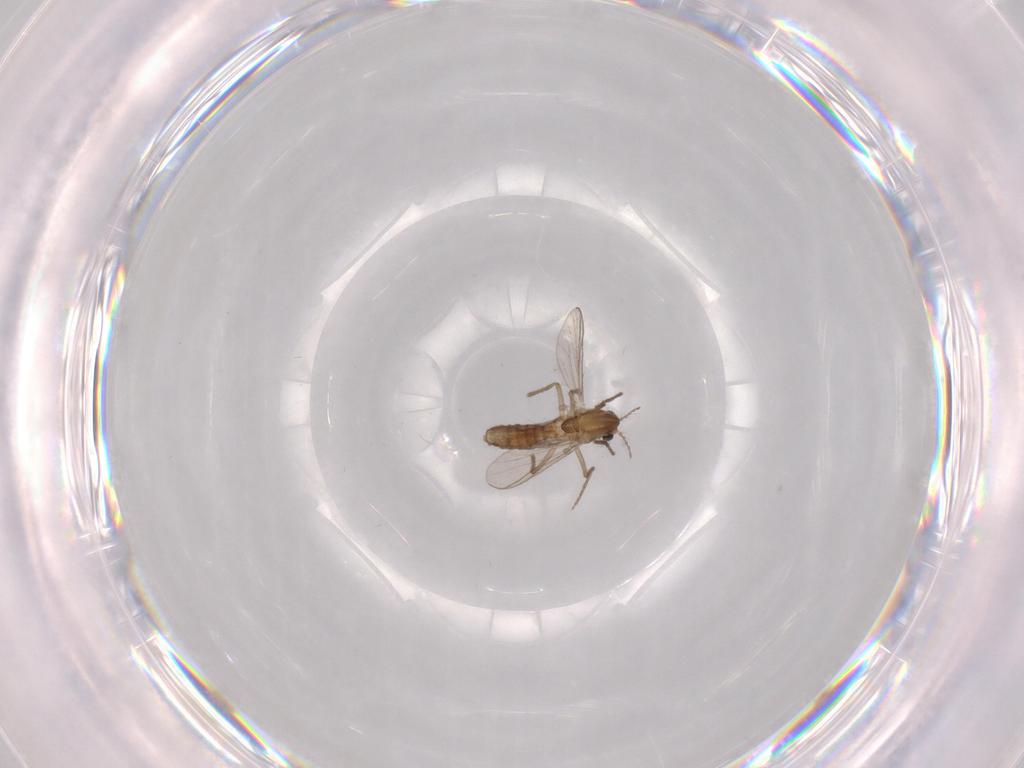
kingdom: Animalia
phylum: Arthropoda
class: Insecta
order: Diptera
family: Chironomidae
